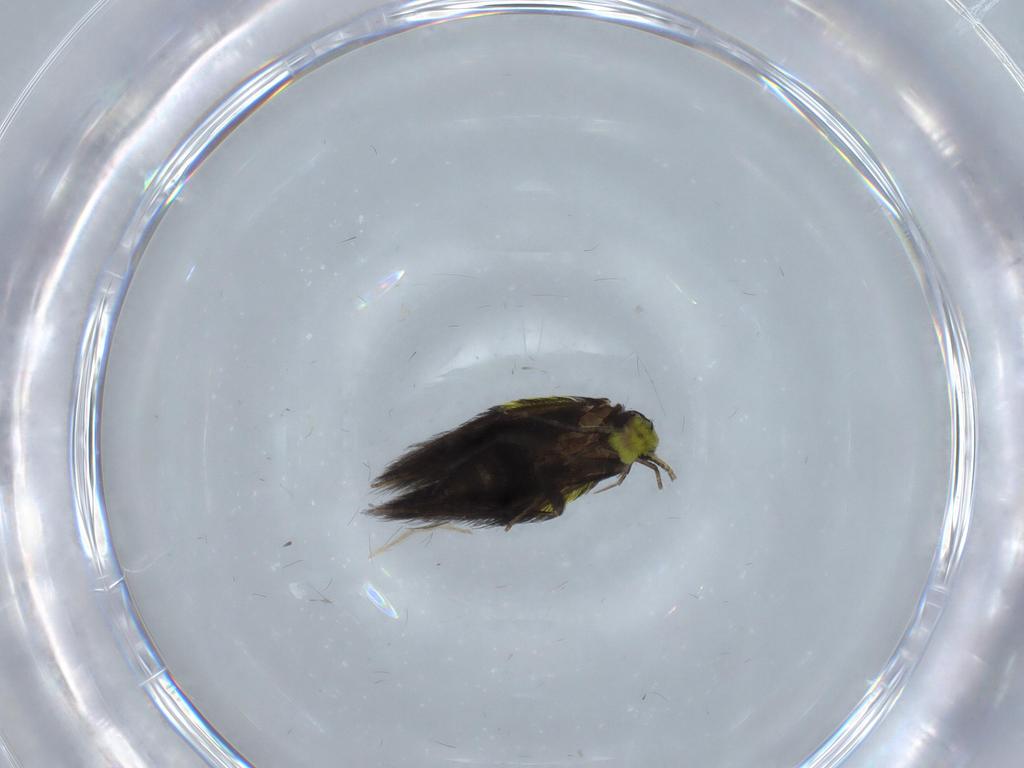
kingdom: Animalia
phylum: Arthropoda
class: Insecta
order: Trichoptera
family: Hydroptilidae
